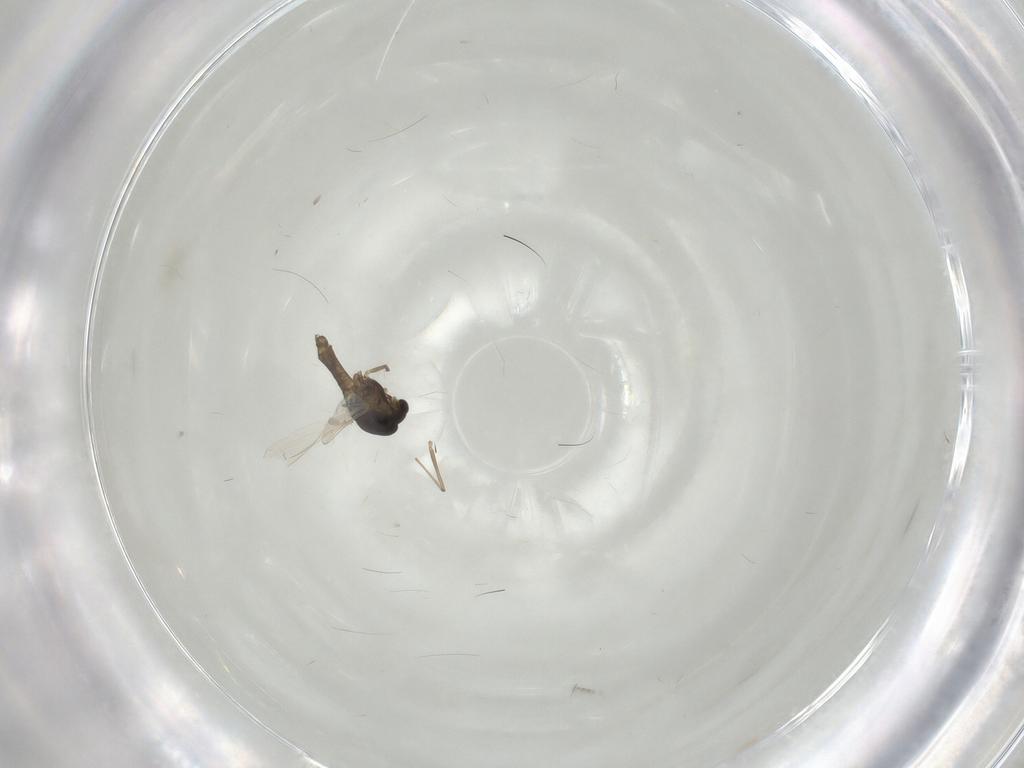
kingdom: Animalia
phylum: Arthropoda
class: Insecta
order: Diptera
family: Chironomidae
